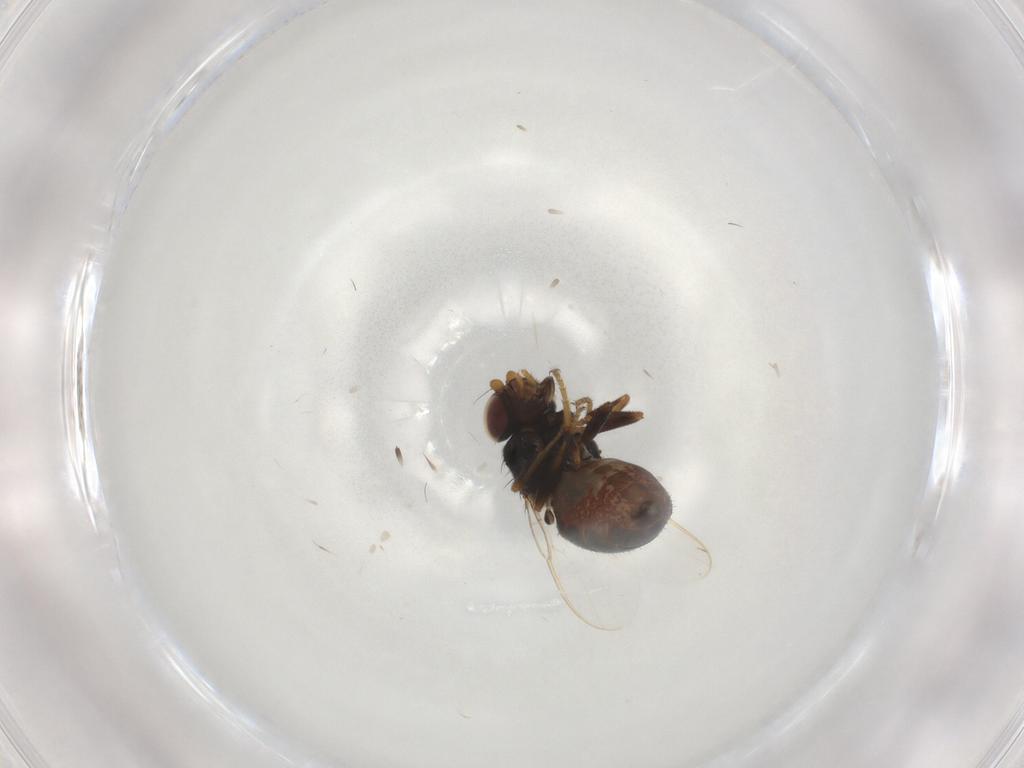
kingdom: Animalia
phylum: Arthropoda
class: Insecta
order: Diptera
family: Chloropidae
